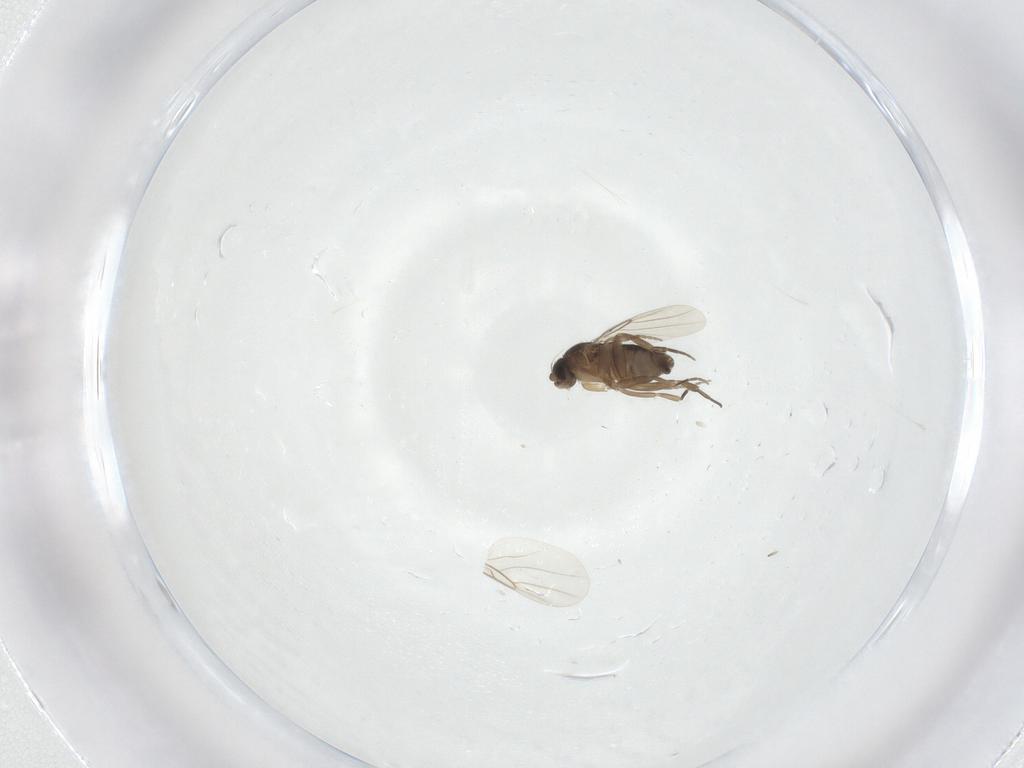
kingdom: Animalia
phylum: Arthropoda
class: Insecta
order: Diptera
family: Phoridae
